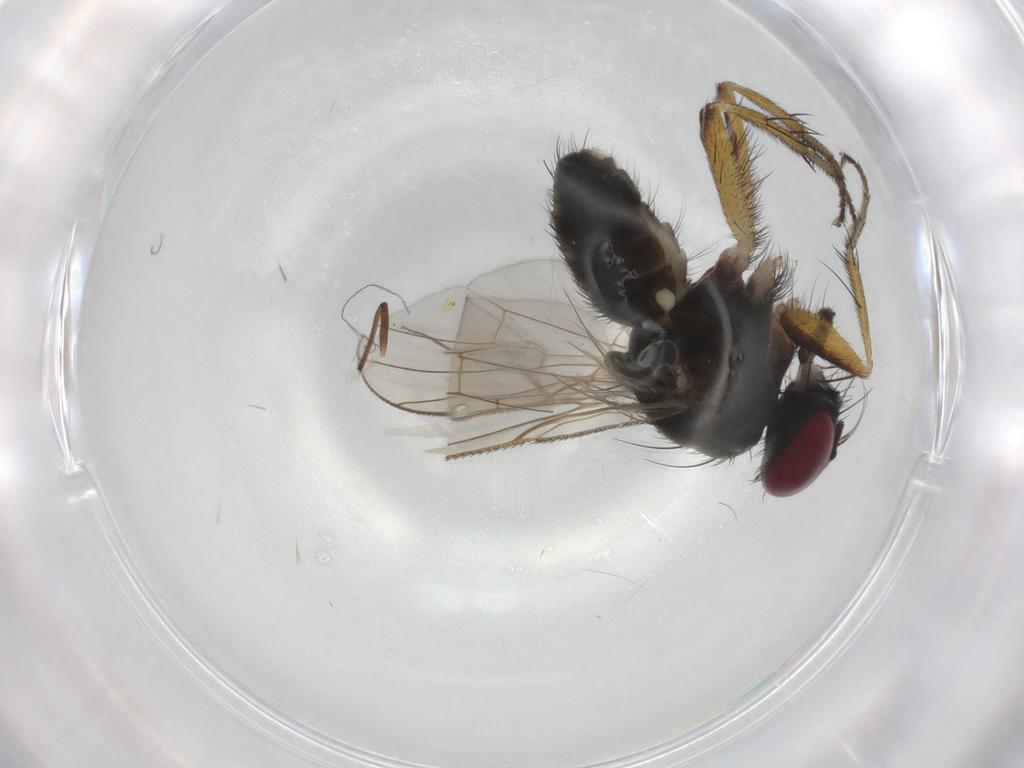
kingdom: Animalia
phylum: Arthropoda
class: Insecta
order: Diptera
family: Muscidae
